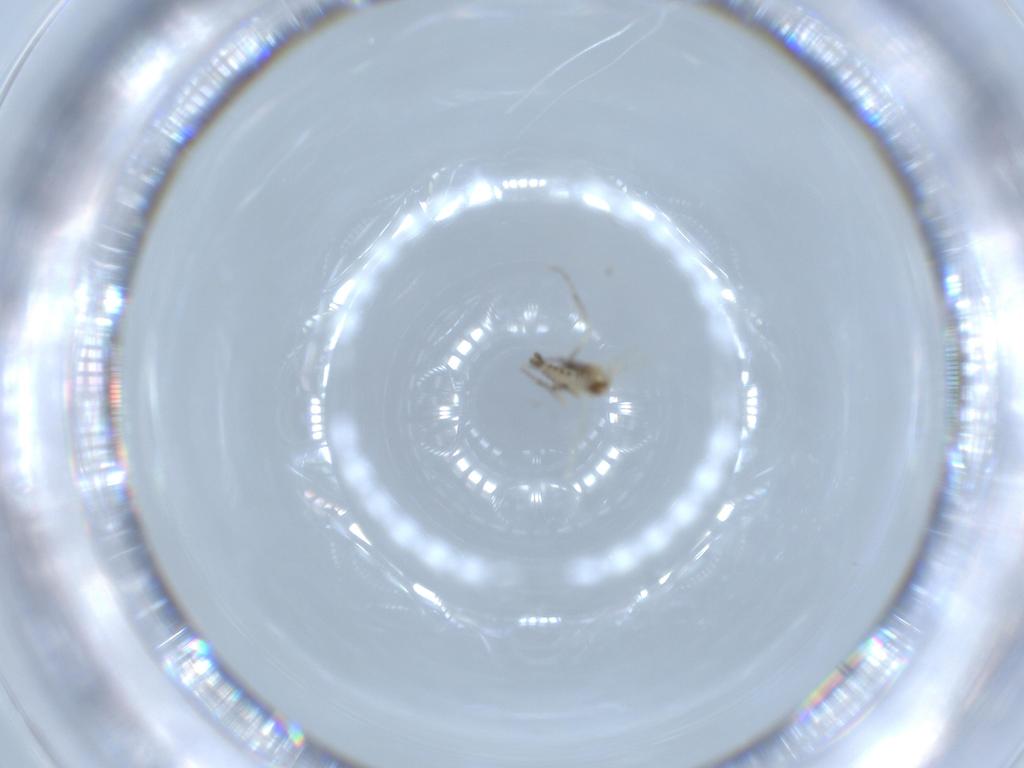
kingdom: Animalia
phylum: Arthropoda
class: Insecta
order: Diptera
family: Ceratopogonidae
